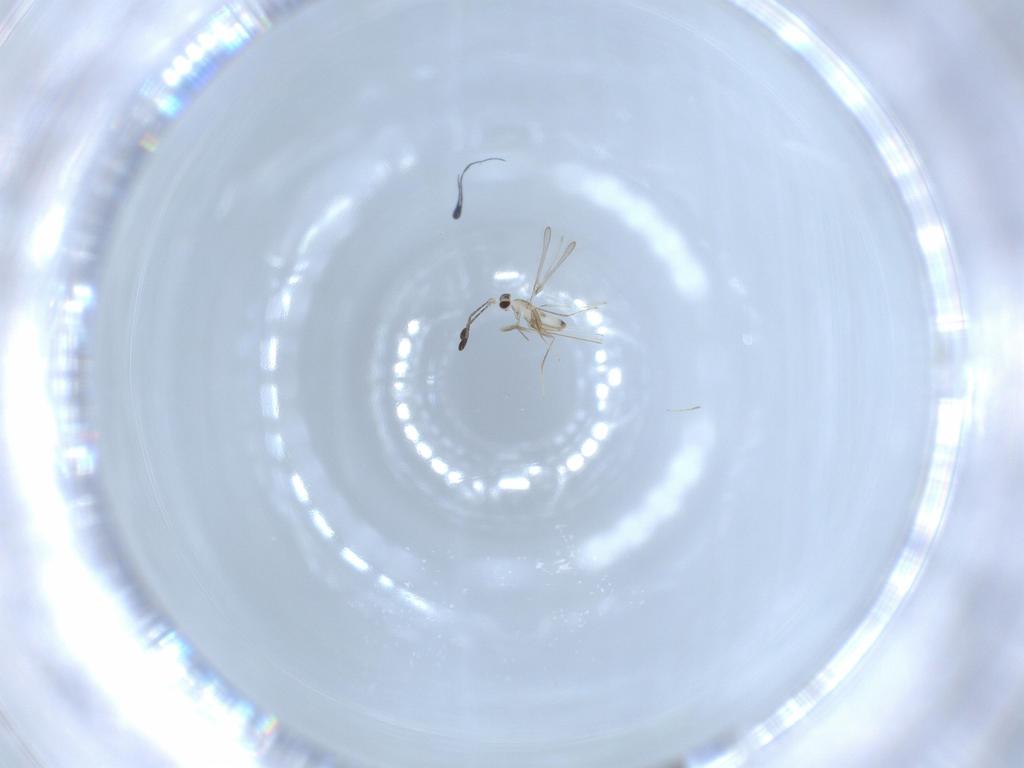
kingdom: Animalia
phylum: Arthropoda
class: Insecta
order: Hymenoptera
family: Mymaridae
